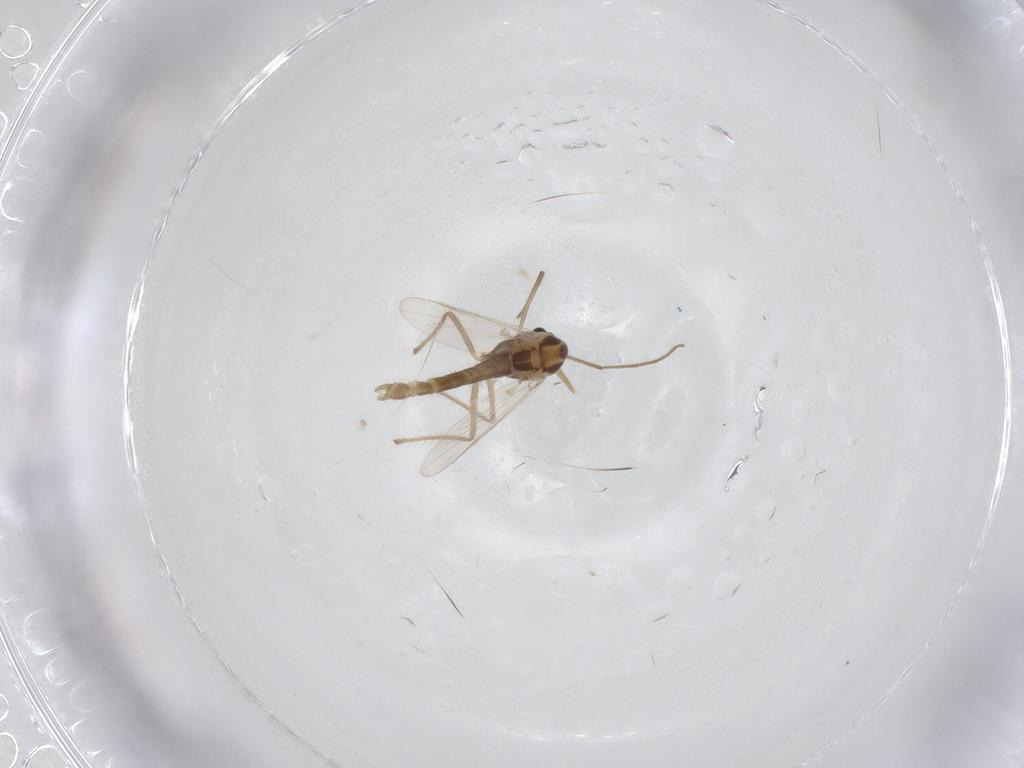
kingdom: Animalia
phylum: Arthropoda
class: Insecta
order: Diptera
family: Chironomidae
